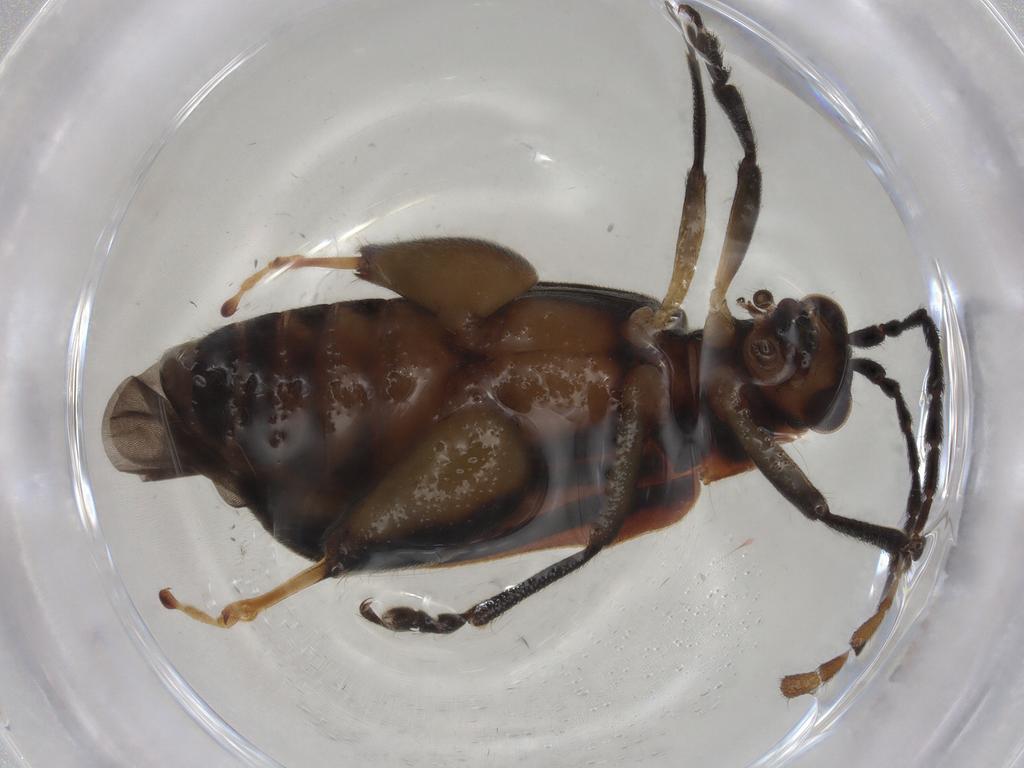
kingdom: Animalia
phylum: Arthropoda
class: Insecta
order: Coleoptera
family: Chrysomelidae
